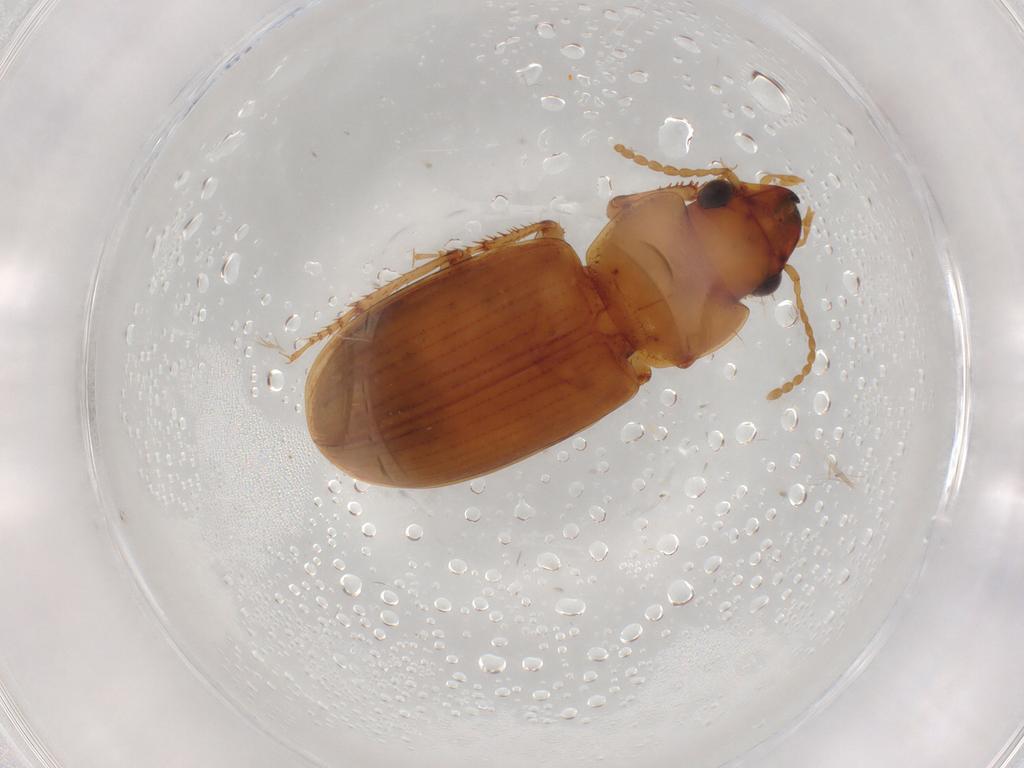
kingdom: Animalia
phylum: Arthropoda
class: Insecta
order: Coleoptera
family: Carabidae
